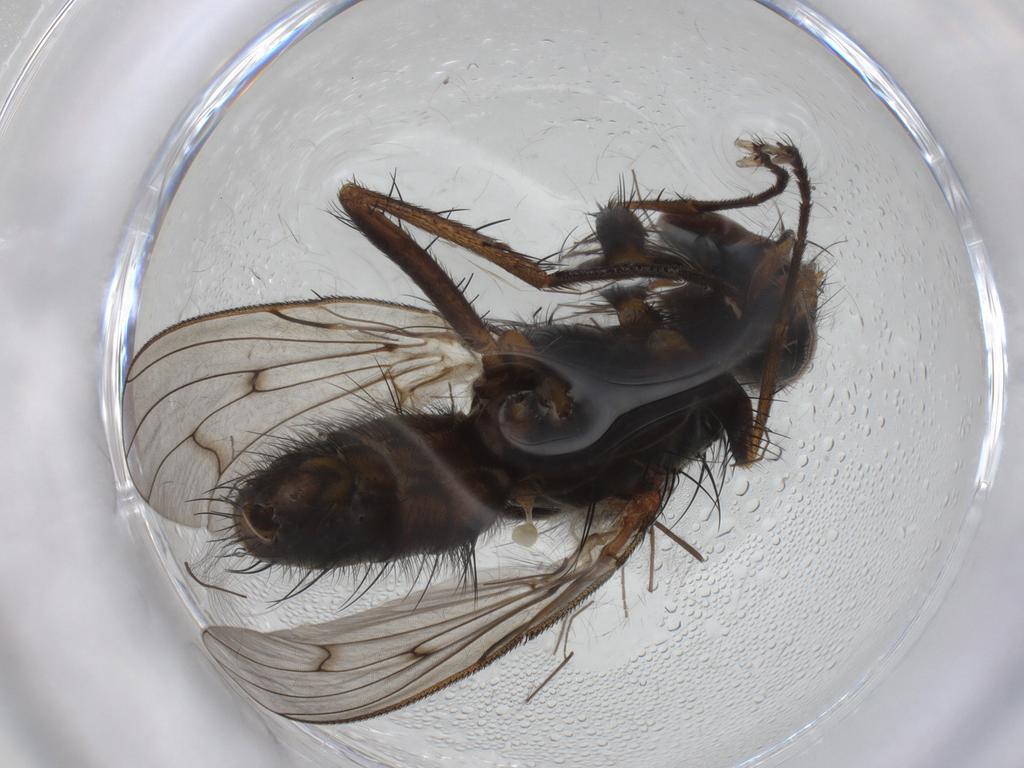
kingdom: Animalia
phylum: Arthropoda
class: Insecta
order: Diptera
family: Anthomyiidae
